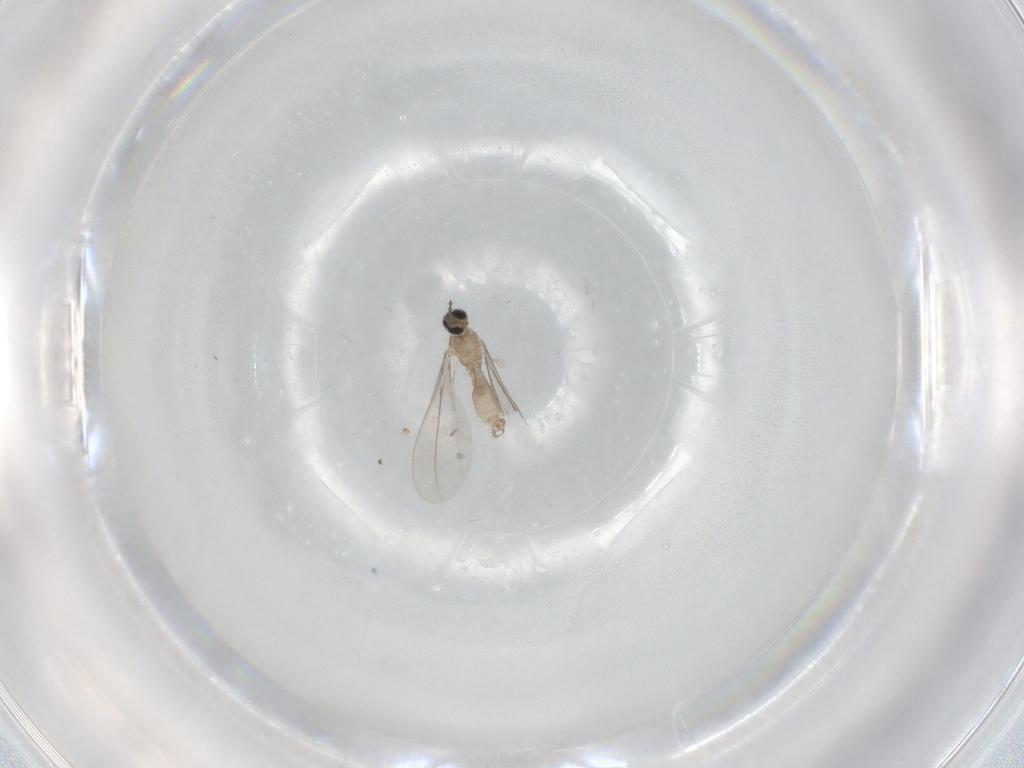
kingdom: Animalia
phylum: Arthropoda
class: Insecta
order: Diptera
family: Cecidomyiidae
